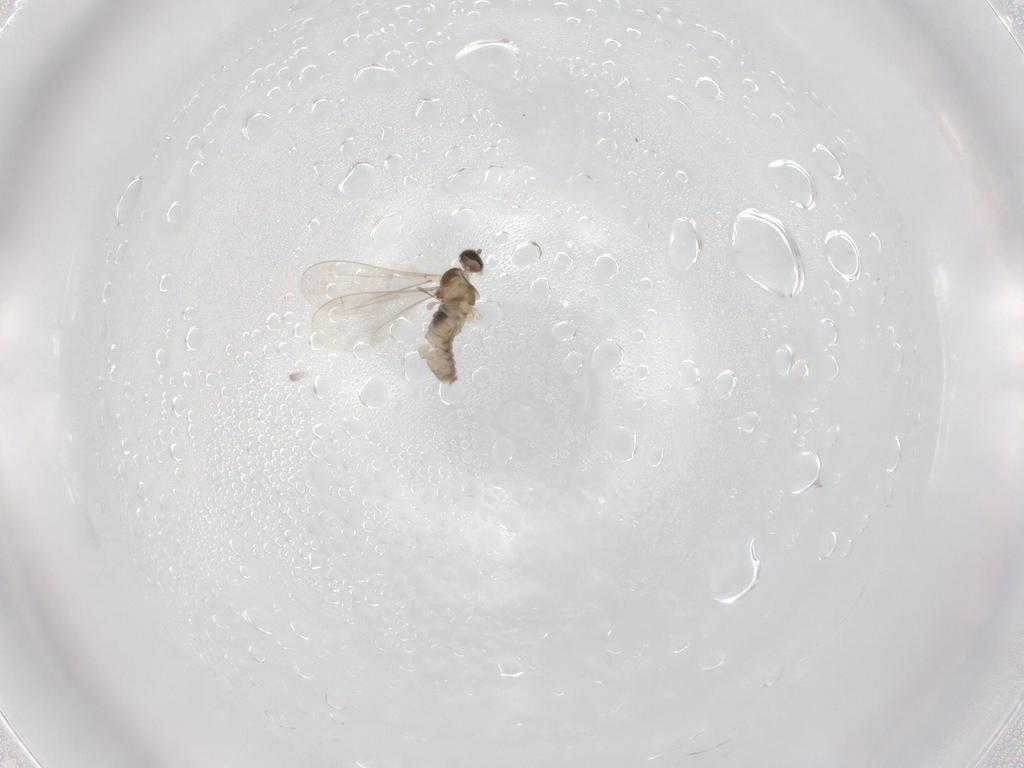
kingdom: Animalia
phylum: Arthropoda
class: Insecta
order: Diptera
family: Cecidomyiidae
